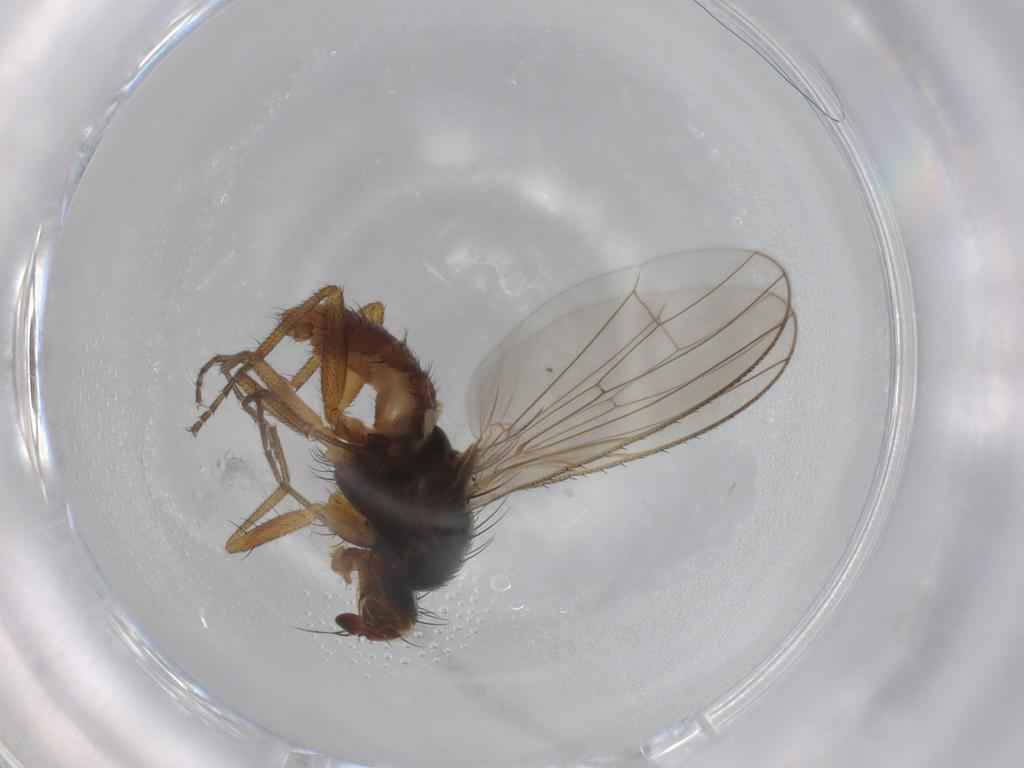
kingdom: Animalia
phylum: Arthropoda
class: Insecta
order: Diptera
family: Heleomyzidae
